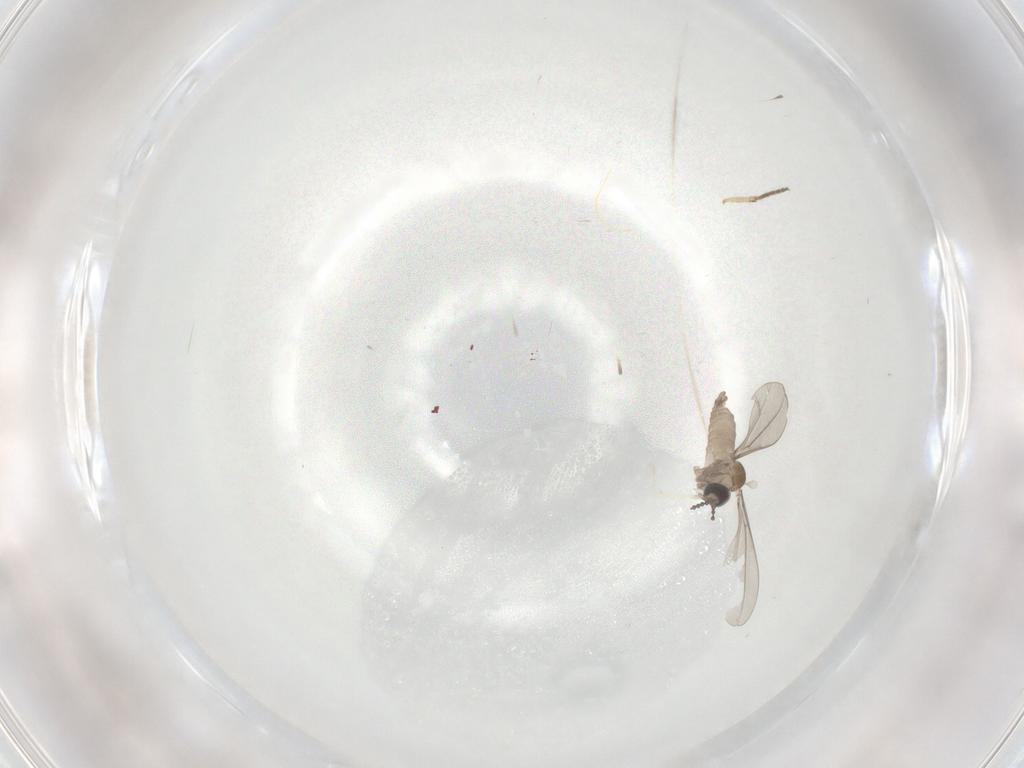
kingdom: Animalia
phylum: Arthropoda
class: Insecta
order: Diptera
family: Cecidomyiidae
